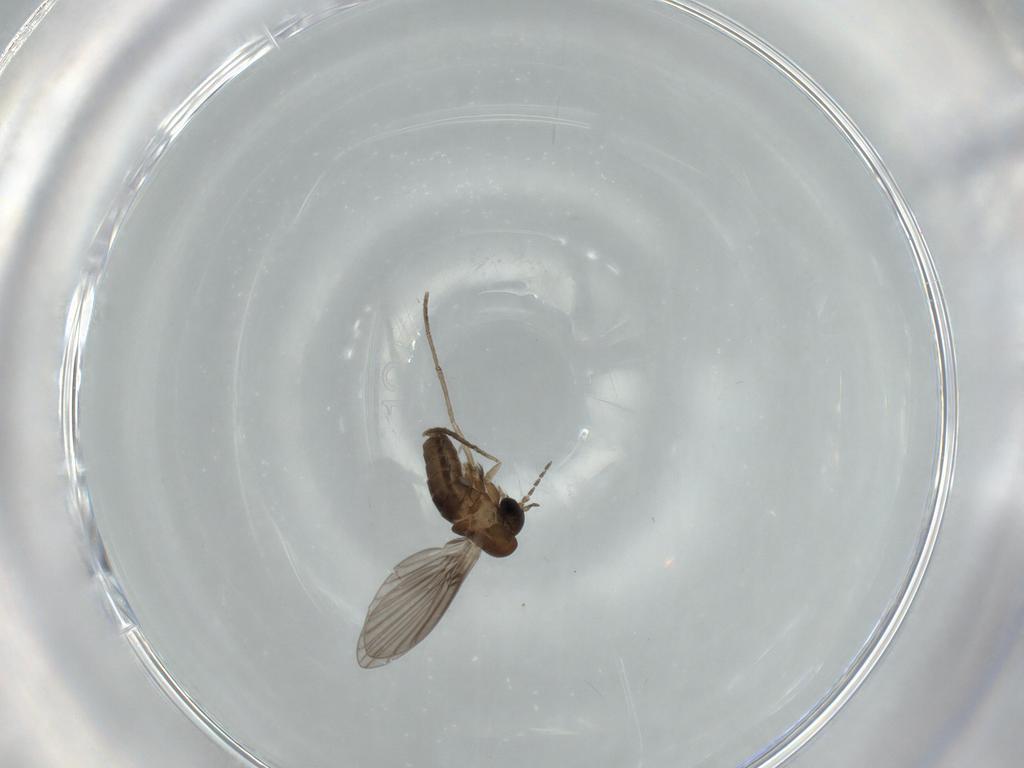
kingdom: Animalia
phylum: Arthropoda
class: Insecta
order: Diptera
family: Psychodidae
